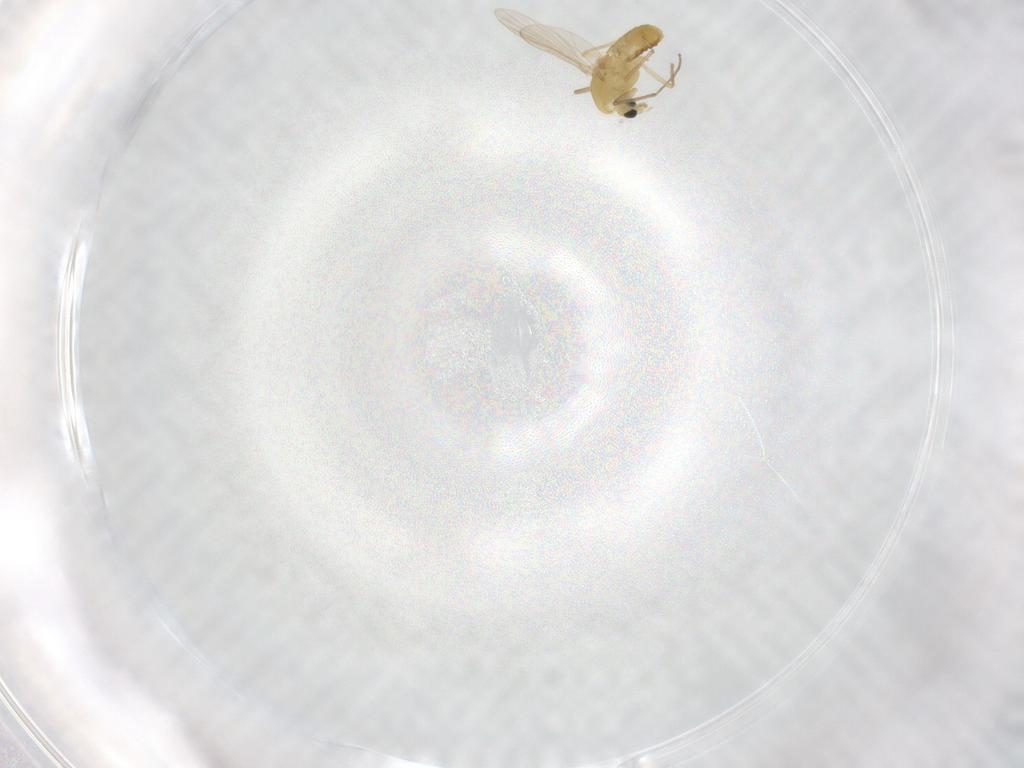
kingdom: Animalia
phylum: Arthropoda
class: Insecta
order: Diptera
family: Chironomidae
